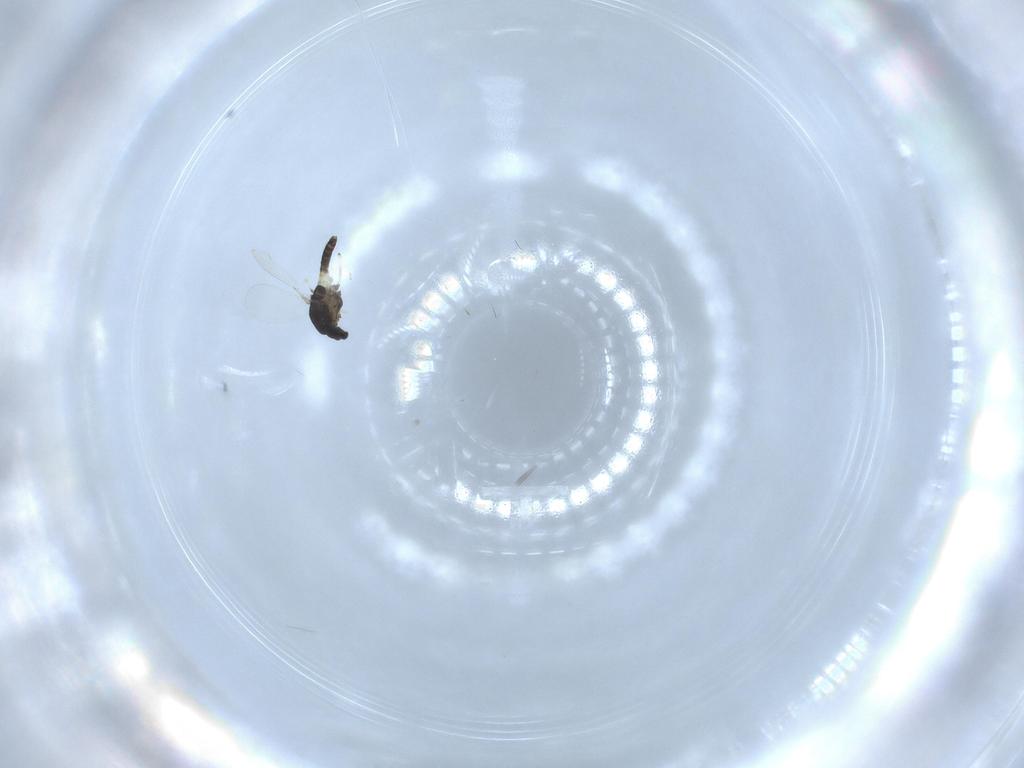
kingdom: Animalia
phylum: Arthropoda
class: Insecta
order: Diptera
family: Chironomidae
